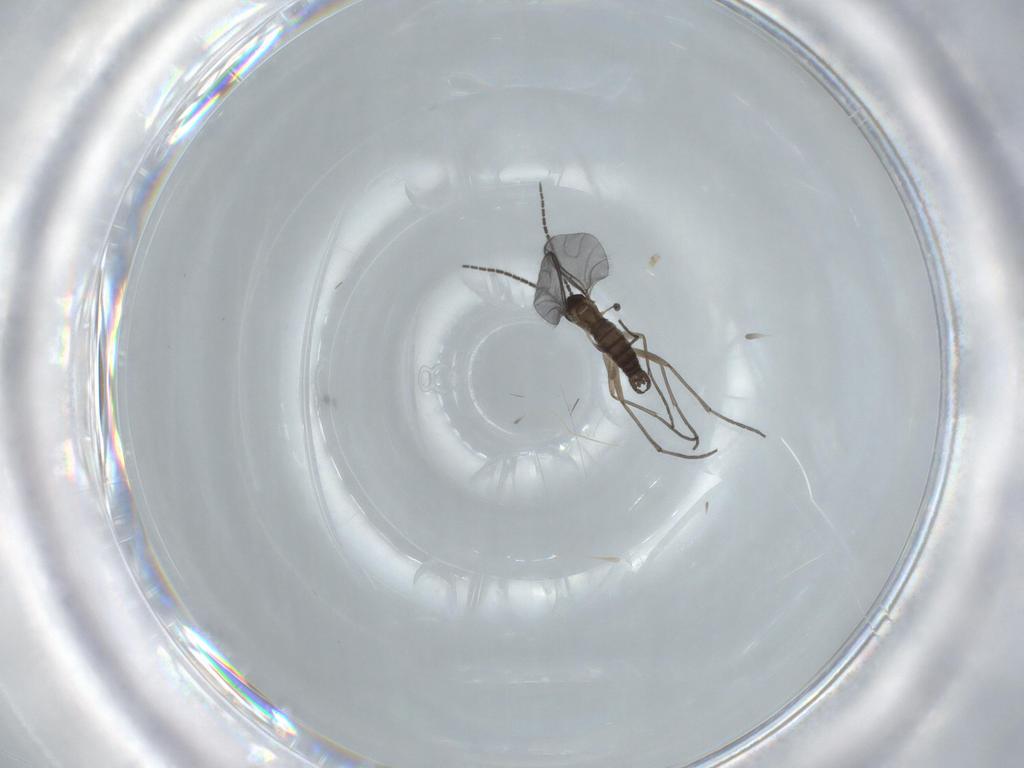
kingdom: Animalia
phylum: Arthropoda
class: Insecta
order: Diptera
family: Sciaridae
